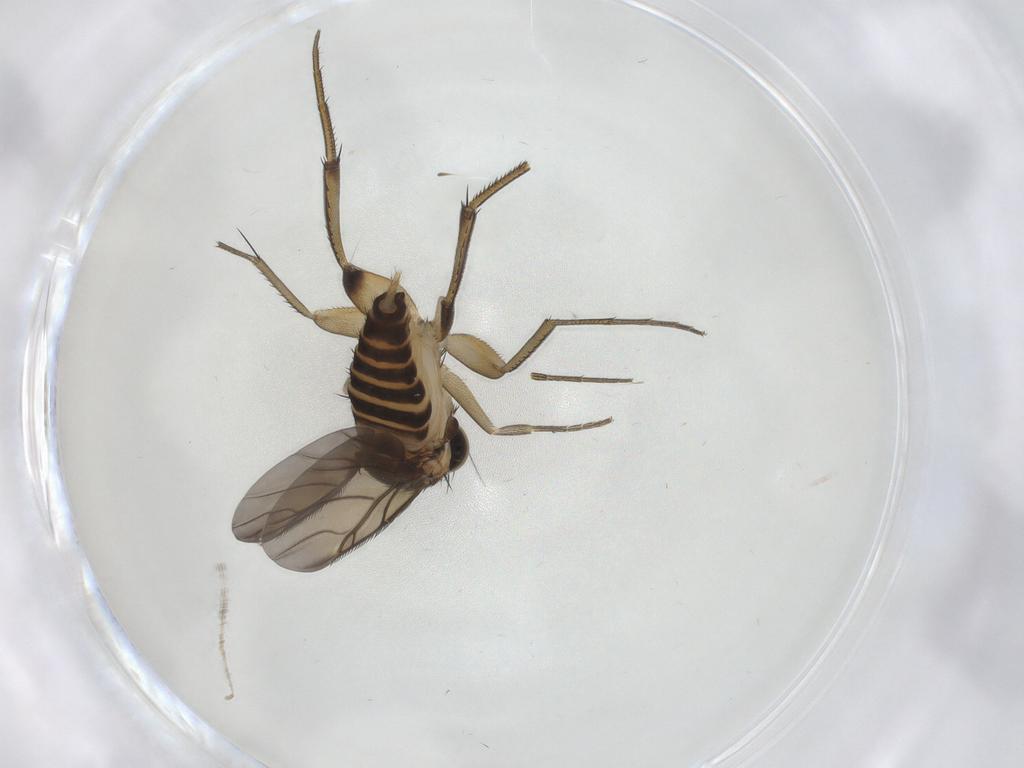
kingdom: Animalia
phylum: Arthropoda
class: Insecta
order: Diptera
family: Phoridae
